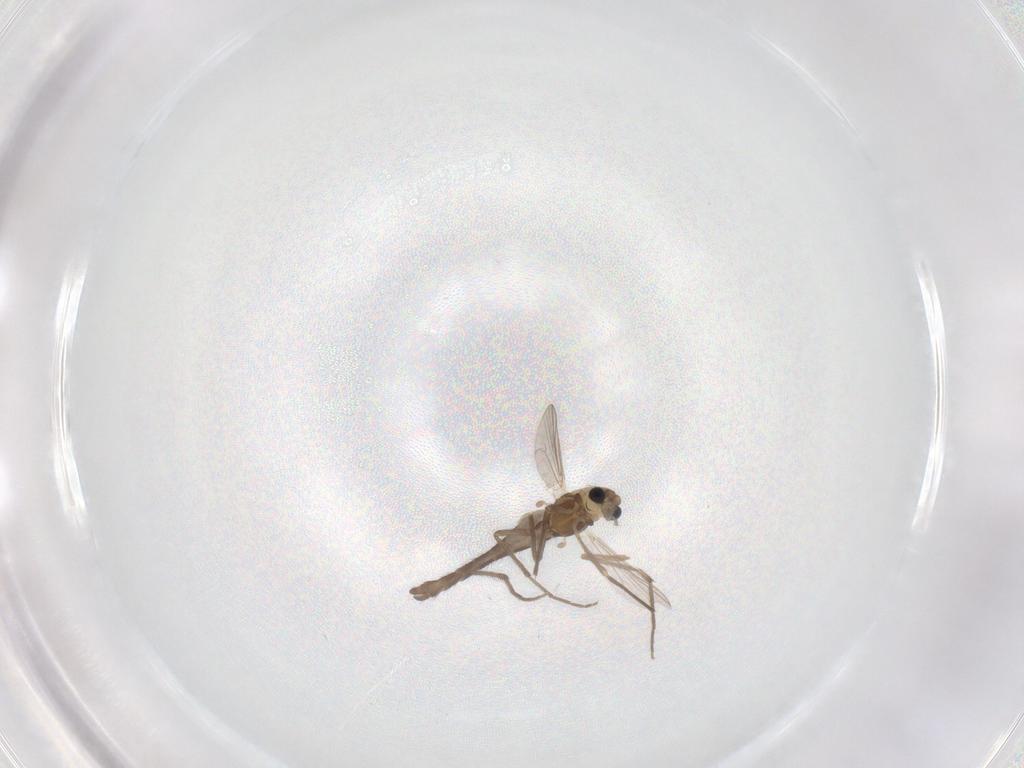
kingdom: Animalia
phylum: Arthropoda
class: Insecta
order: Diptera
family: Chironomidae
